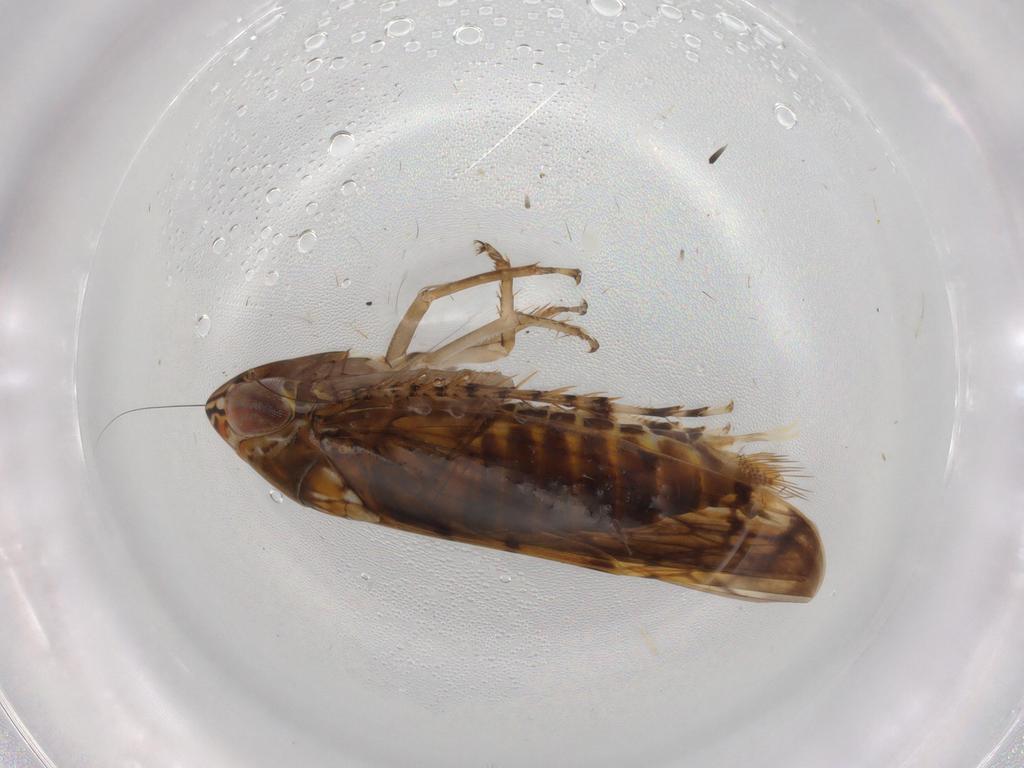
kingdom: Animalia
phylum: Arthropoda
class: Insecta
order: Hemiptera
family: Cicadellidae
